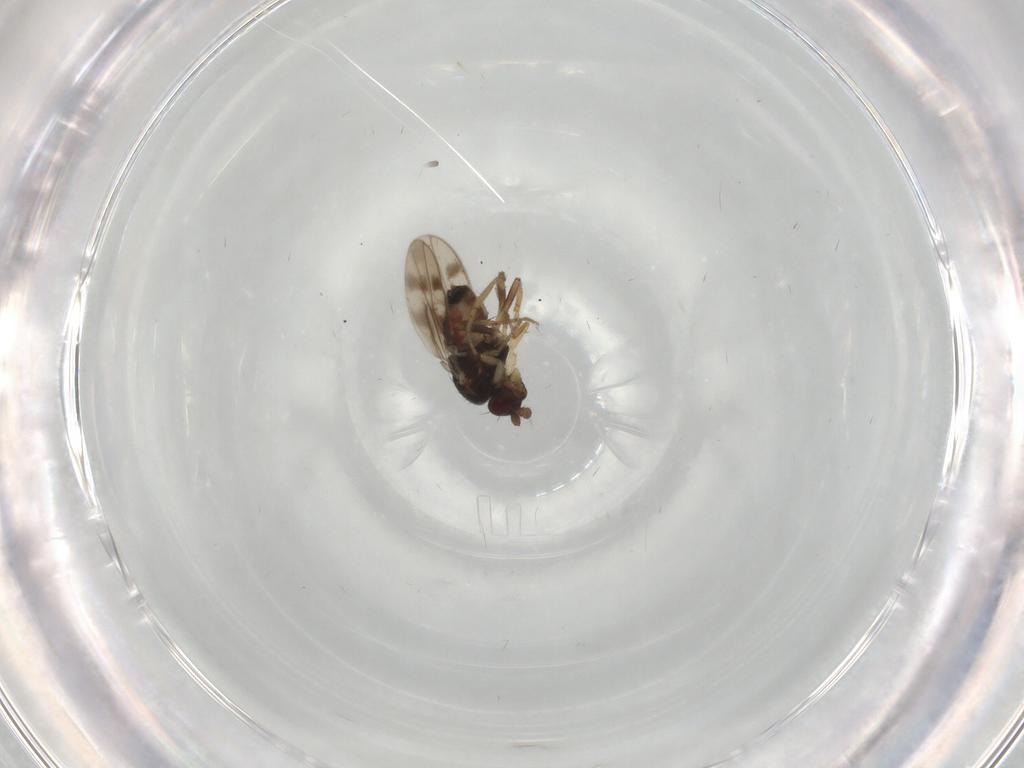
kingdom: Animalia
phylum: Arthropoda
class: Insecta
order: Diptera
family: Sphaeroceridae
